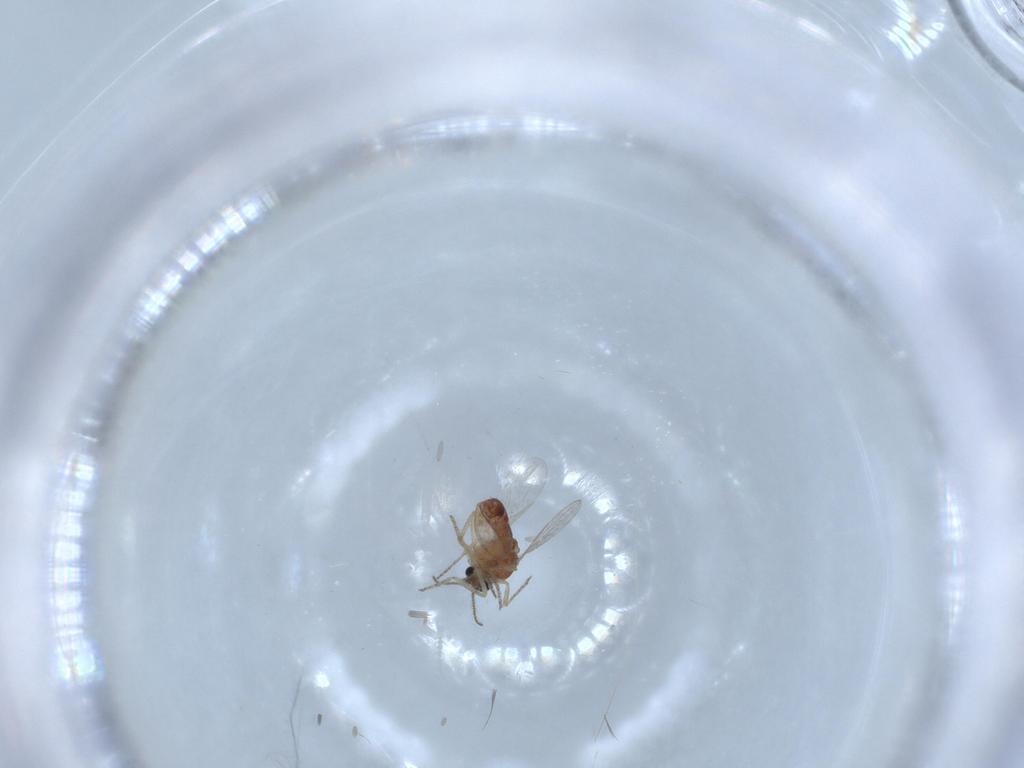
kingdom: Animalia
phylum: Arthropoda
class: Insecta
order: Diptera
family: Ceratopogonidae
